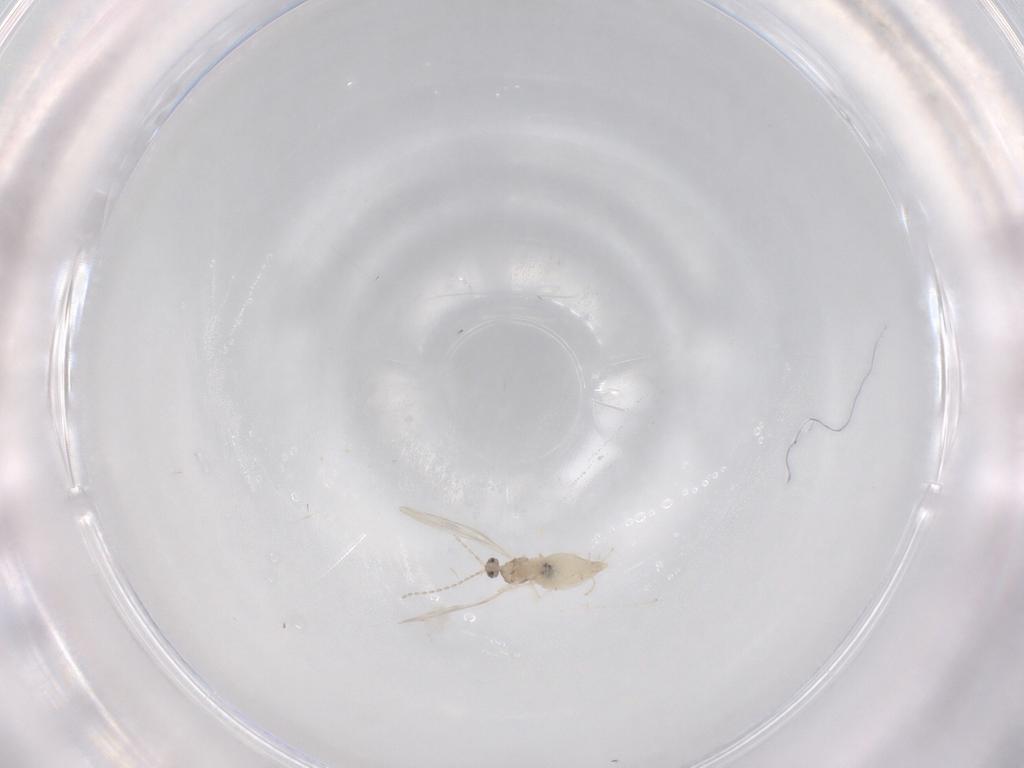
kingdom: Animalia
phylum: Arthropoda
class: Insecta
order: Diptera
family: Cecidomyiidae
